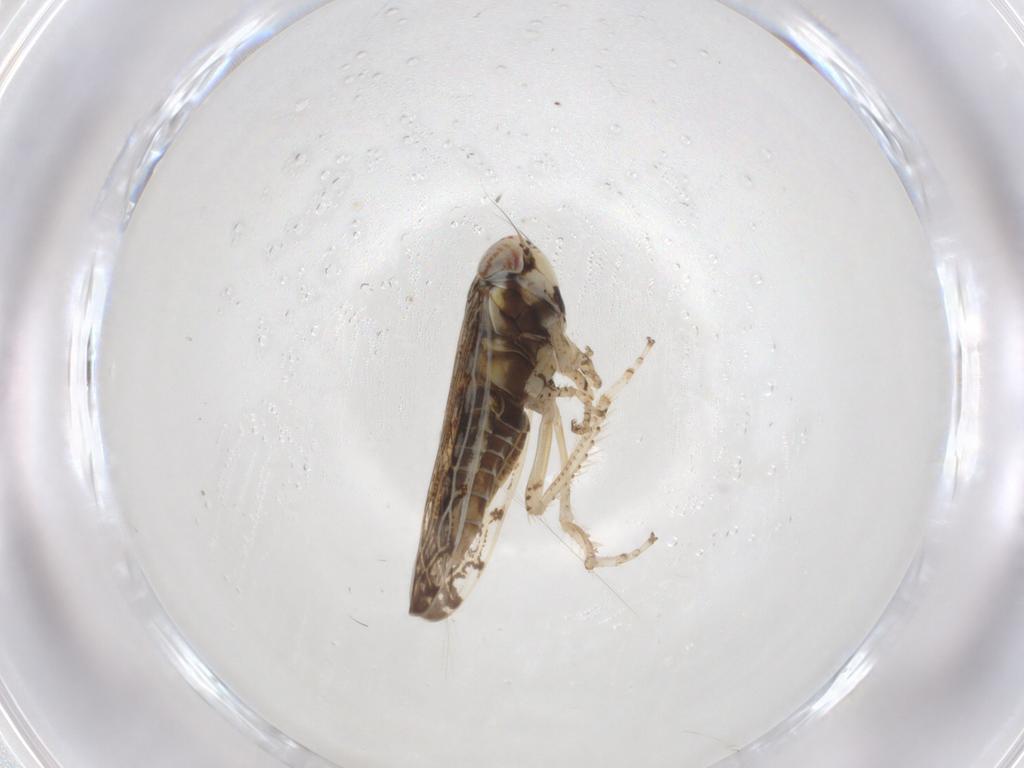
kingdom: Animalia
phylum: Arthropoda
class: Insecta
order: Hemiptera
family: Cicadellidae
